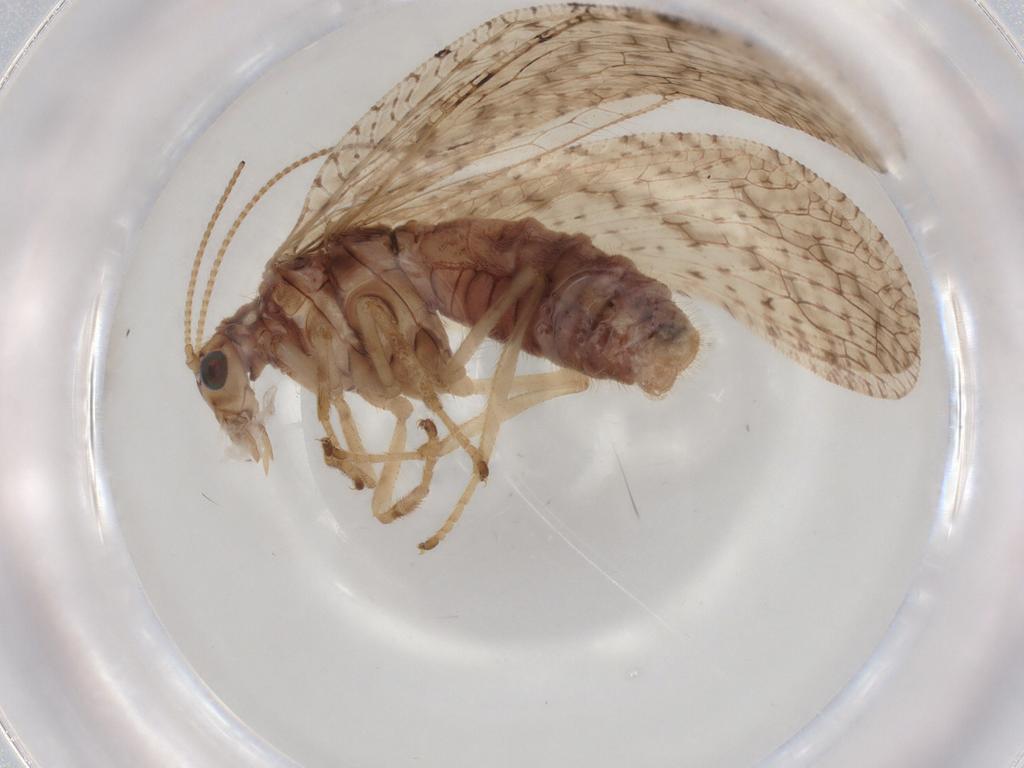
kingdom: Animalia
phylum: Arthropoda
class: Insecta
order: Neuroptera
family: Hemerobiidae
